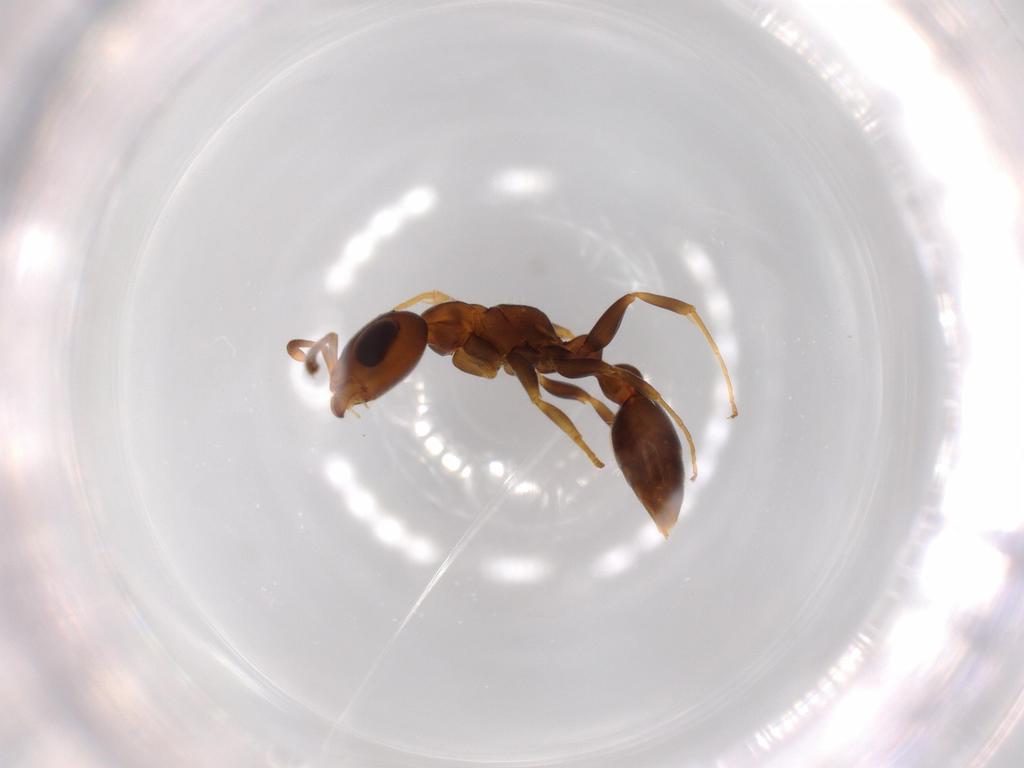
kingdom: Animalia
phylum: Arthropoda
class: Insecta
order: Hymenoptera
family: Formicidae
